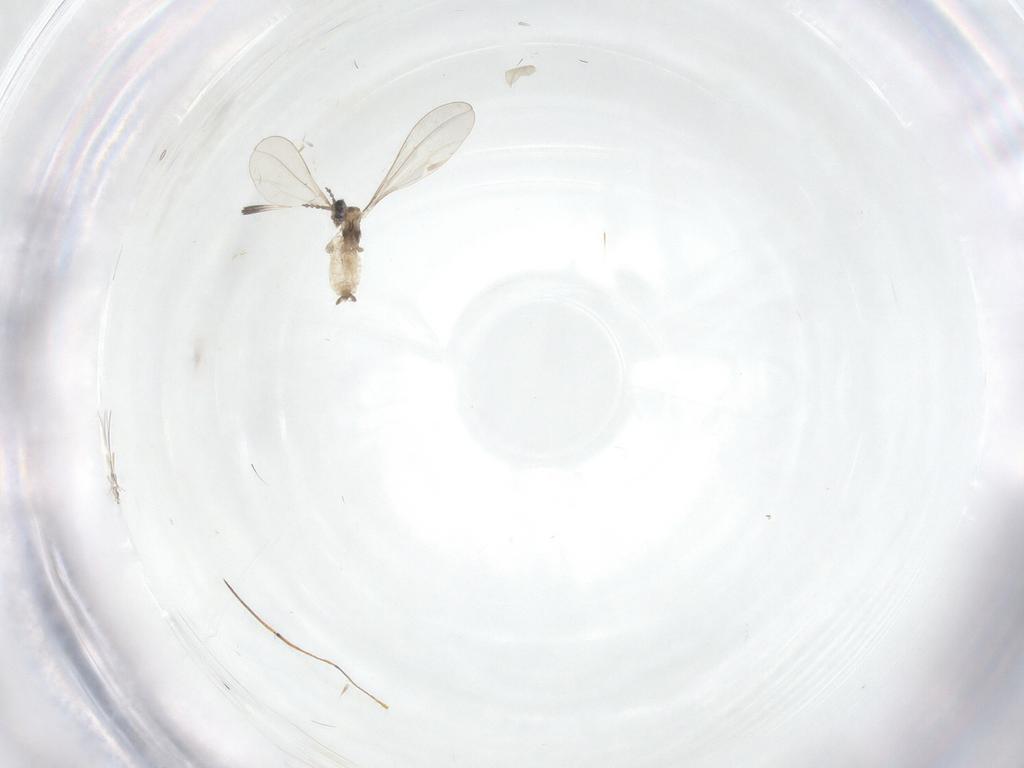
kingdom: Animalia
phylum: Arthropoda
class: Insecta
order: Diptera
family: Cecidomyiidae
